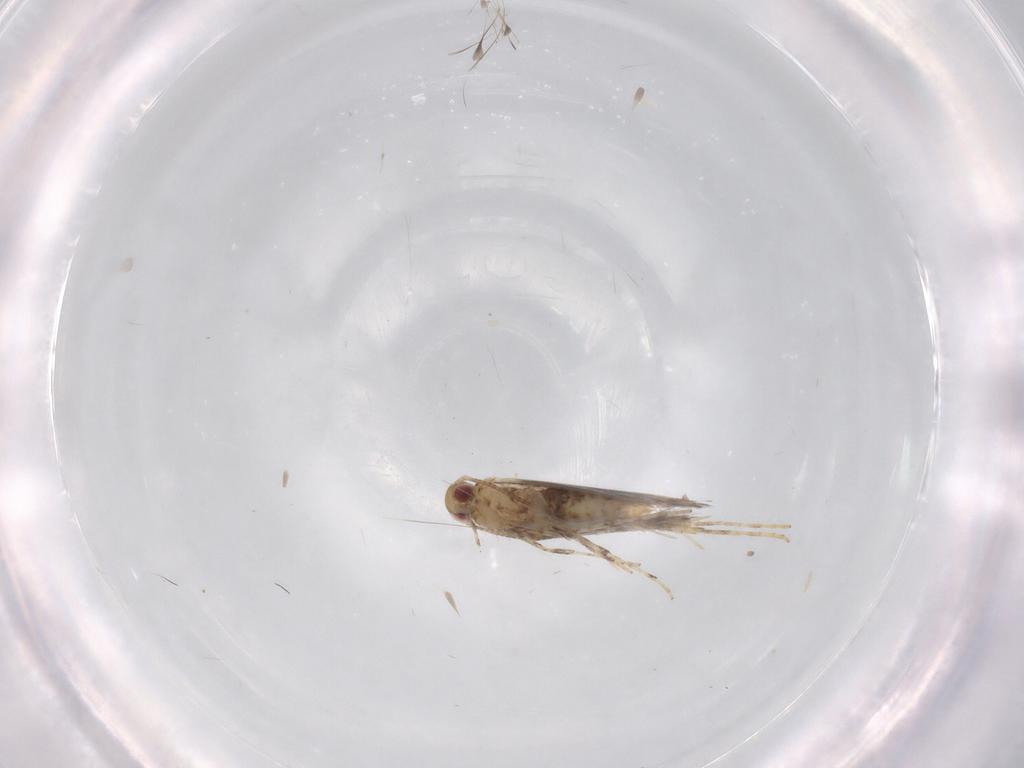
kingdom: Animalia
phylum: Arthropoda
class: Insecta
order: Lepidoptera
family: Gracillariidae
